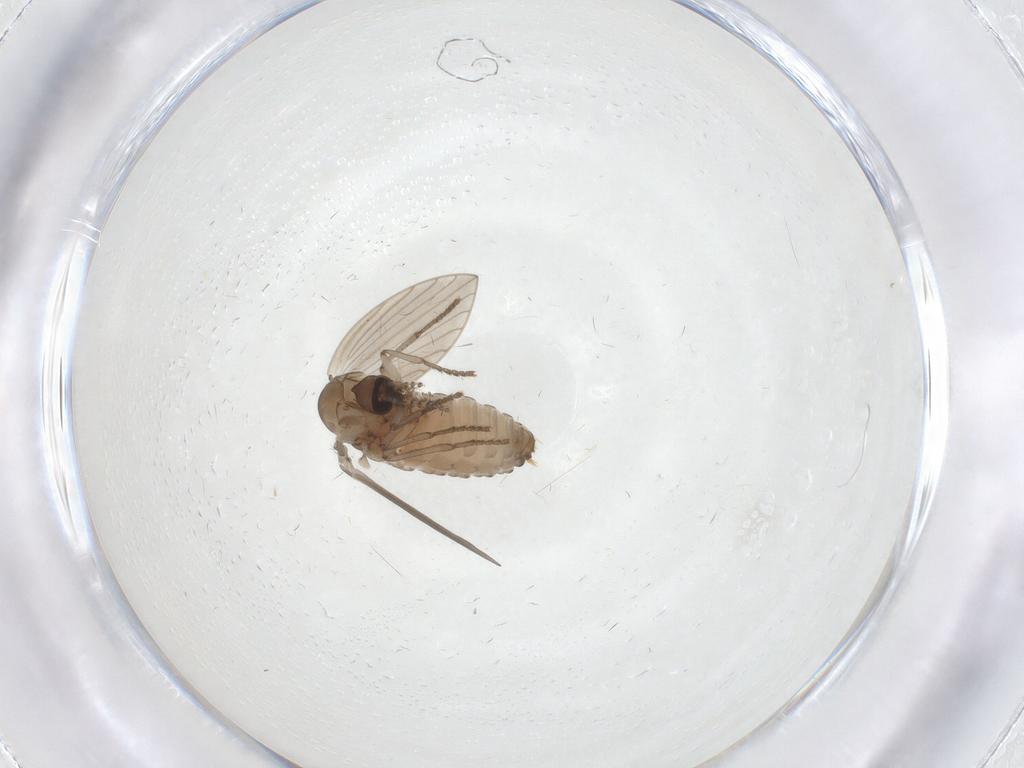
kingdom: Animalia
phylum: Arthropoda
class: Insecta
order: Diptera
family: Psychodidae
